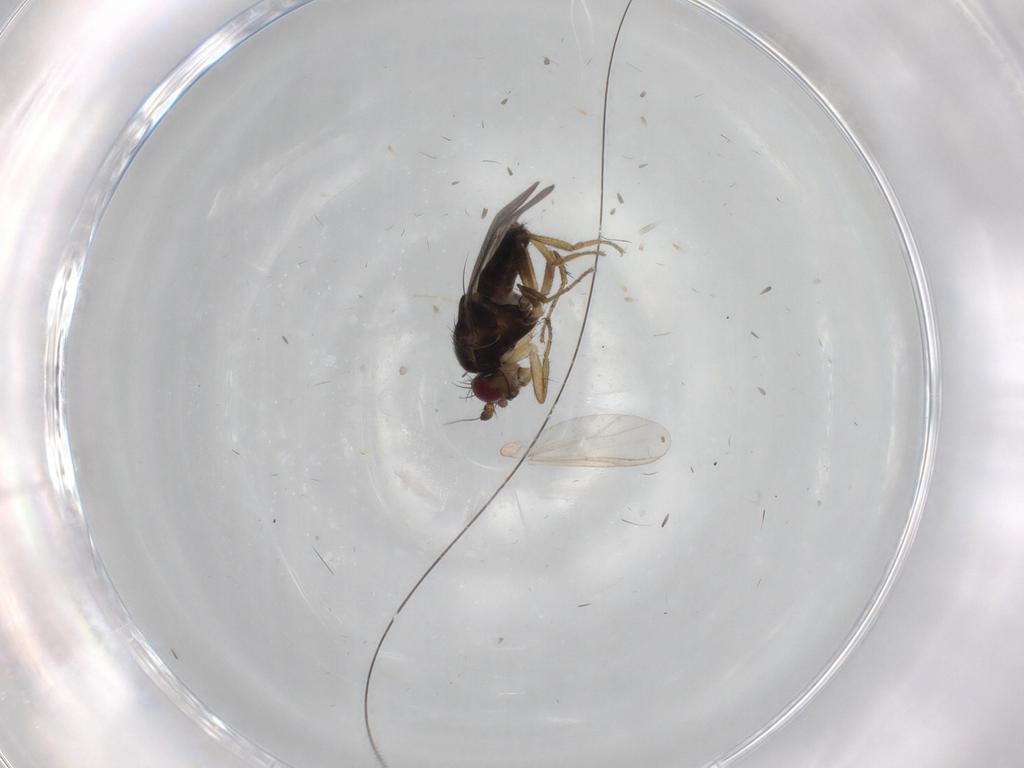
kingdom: Animalia
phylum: Arthropoda
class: Insecta
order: Diptera
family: Sphaeroceridae
